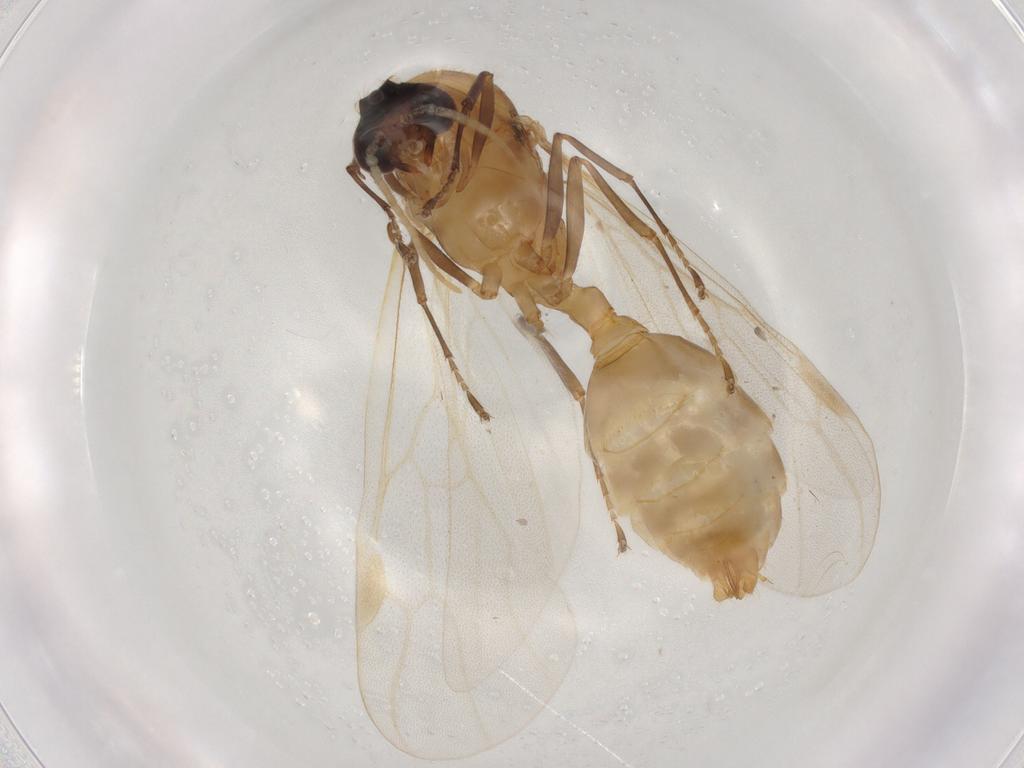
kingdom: Animalia
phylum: Arthropoda
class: Insecta
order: Hymenoptera
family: Formicidae
